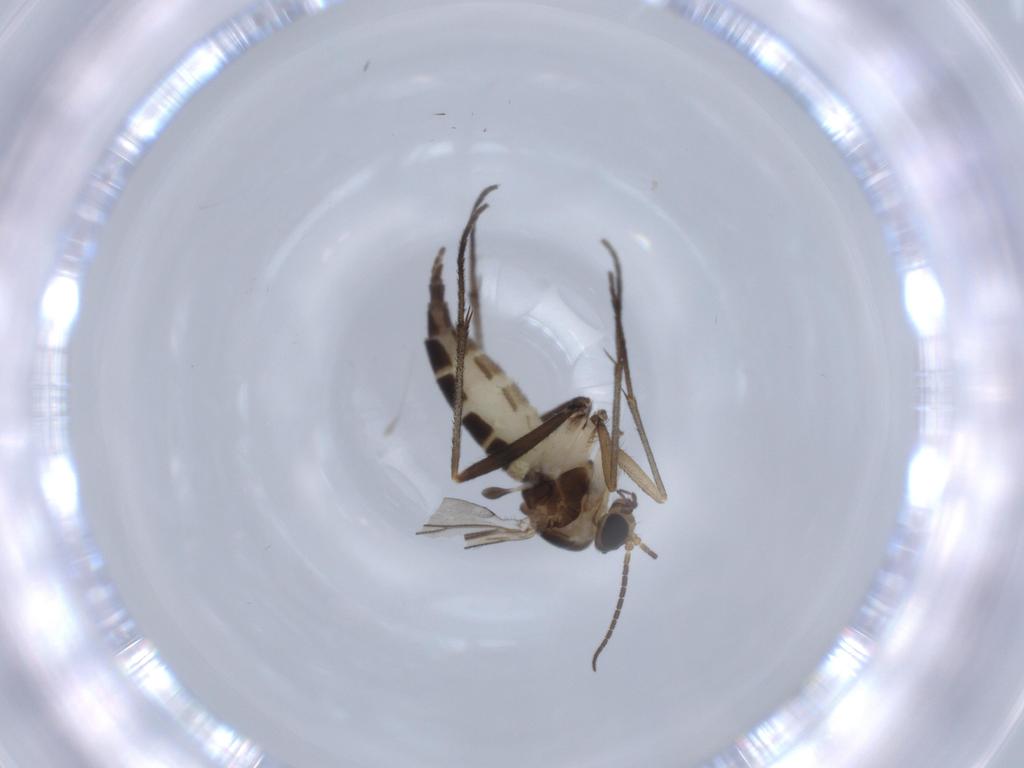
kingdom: Animalia
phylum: Arthropoda
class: Insecta
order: Diptera
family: Sciaridae
